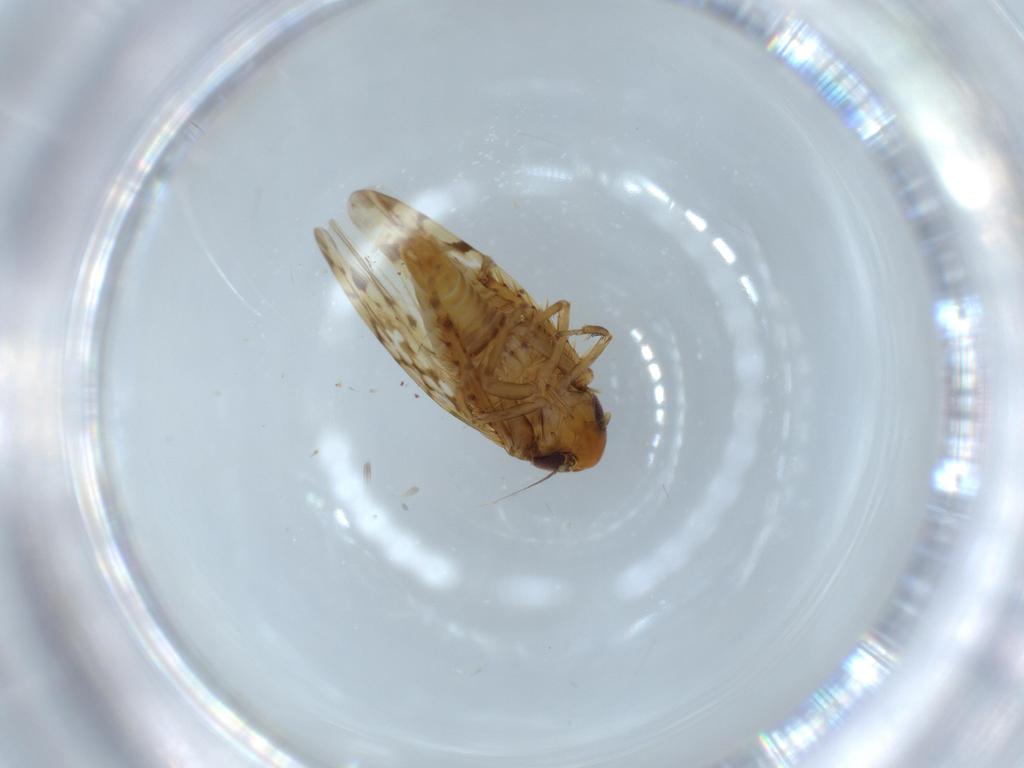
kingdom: Animalia
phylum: Arthropoda
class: Insecta
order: Hemiptera
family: Cicadellidae
